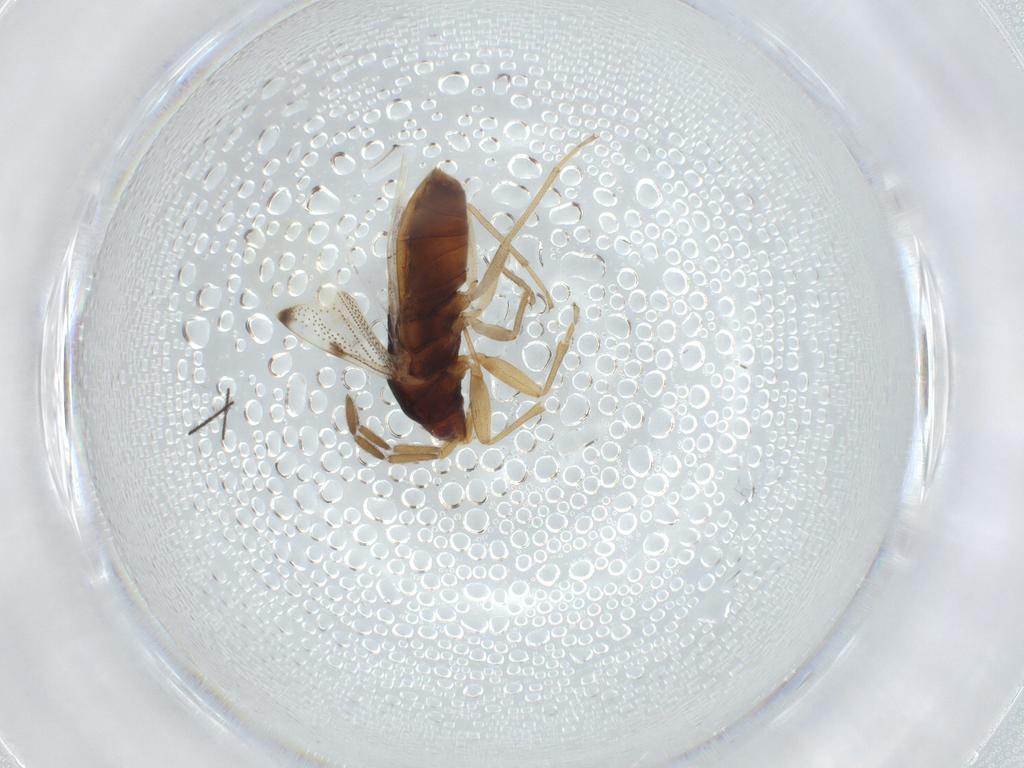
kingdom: Animalia
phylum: Arthropoda
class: Insecta
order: Hemiptera
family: Rhyparochromidae
